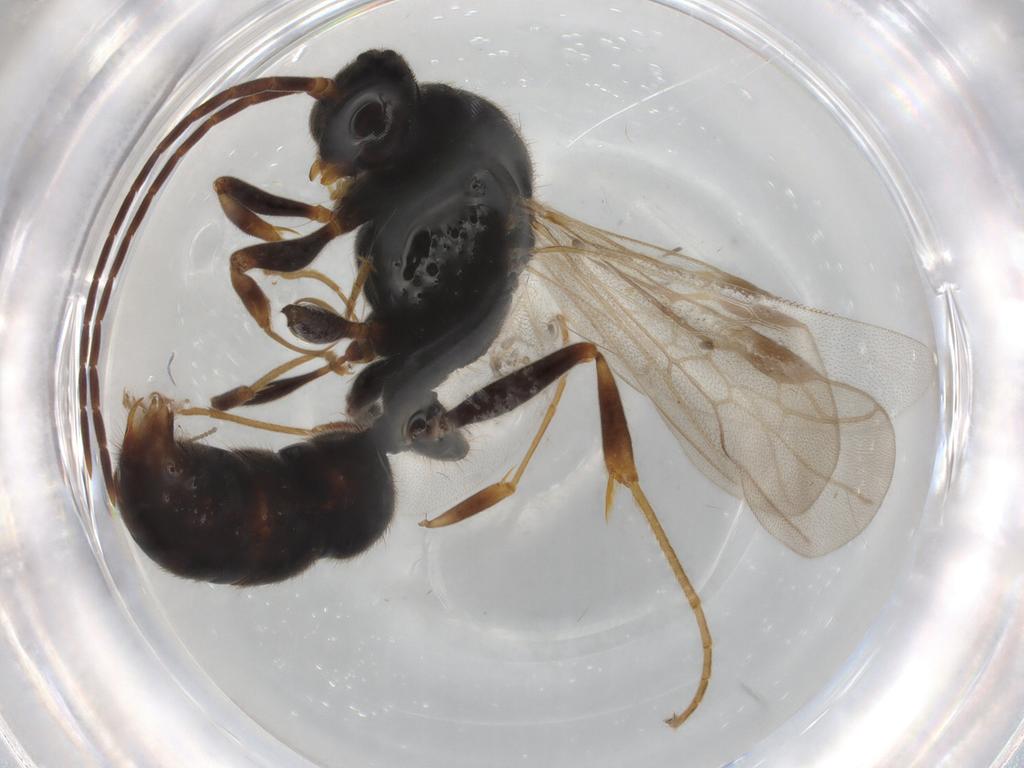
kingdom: Animalia
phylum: Arthropoda
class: Insecta
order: Hymenoptera
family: Formicidae
